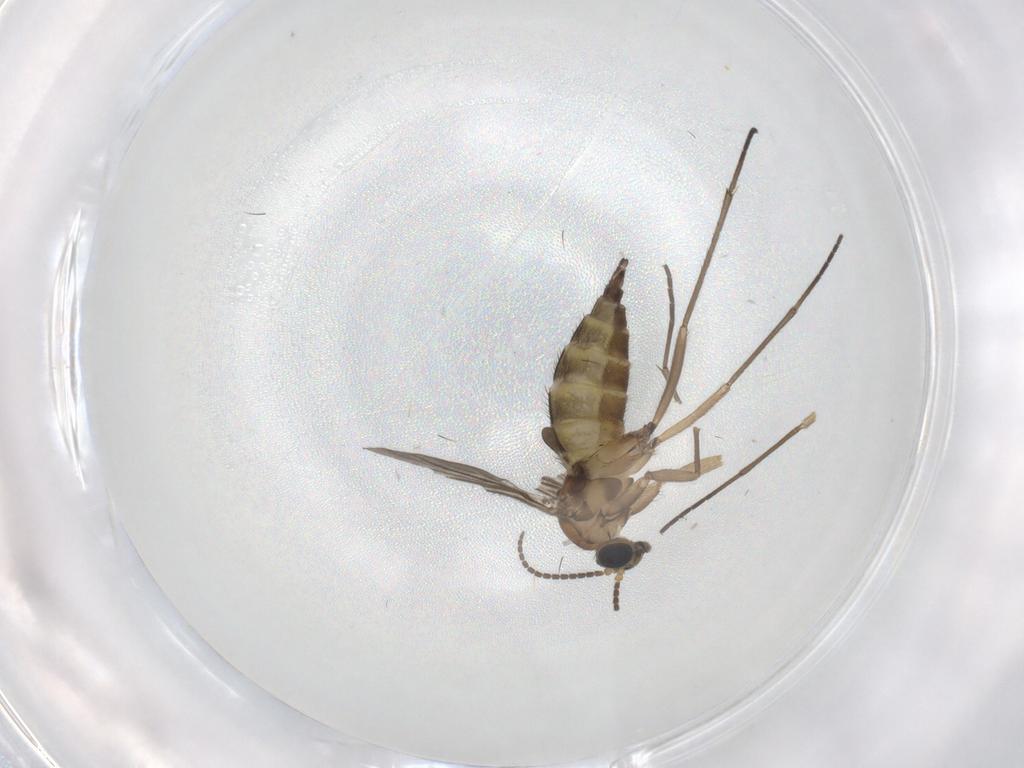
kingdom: Animalia
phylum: Arthropoda
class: Insecta
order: Diptera
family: Sciaridae
